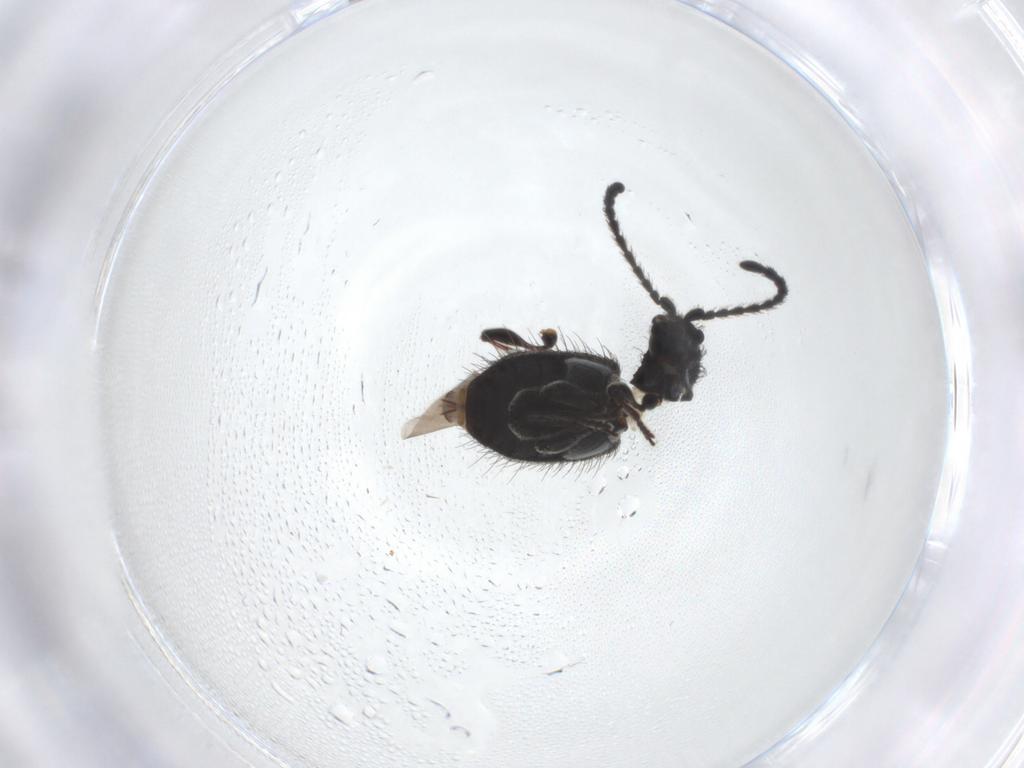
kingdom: Animalia
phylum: Arthropoda
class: Insecta
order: Coleoptera
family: Ptinidae
